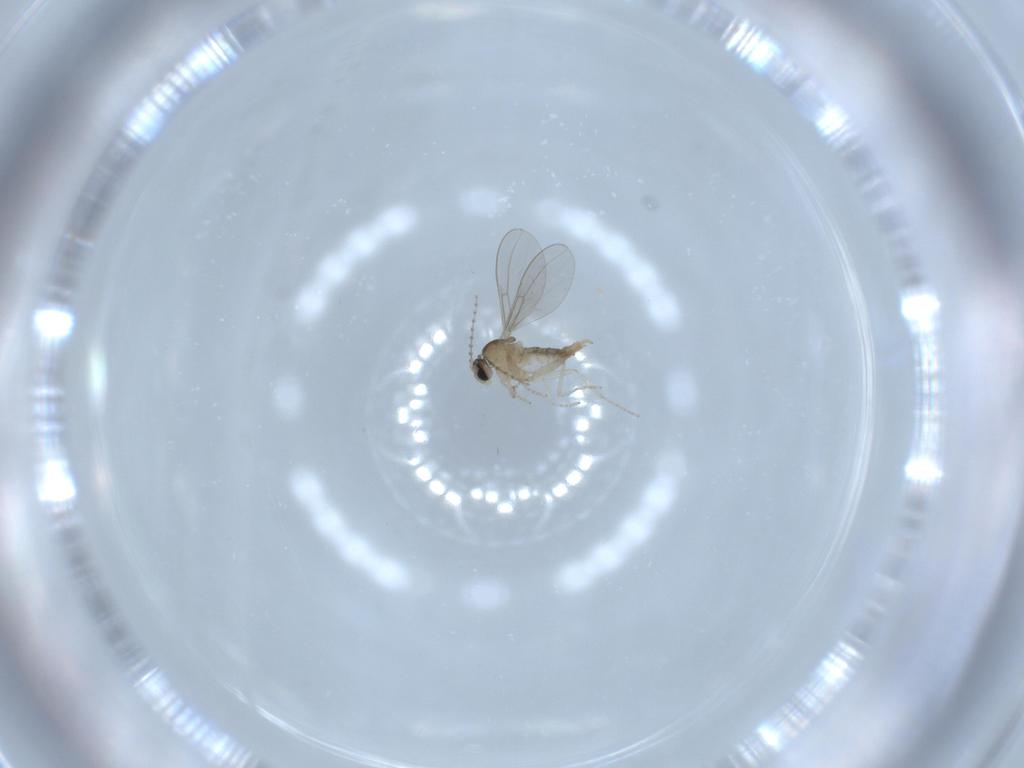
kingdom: Animalia
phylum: Arthropoda
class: Insecta
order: Diptera
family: Cecidomyiidae
